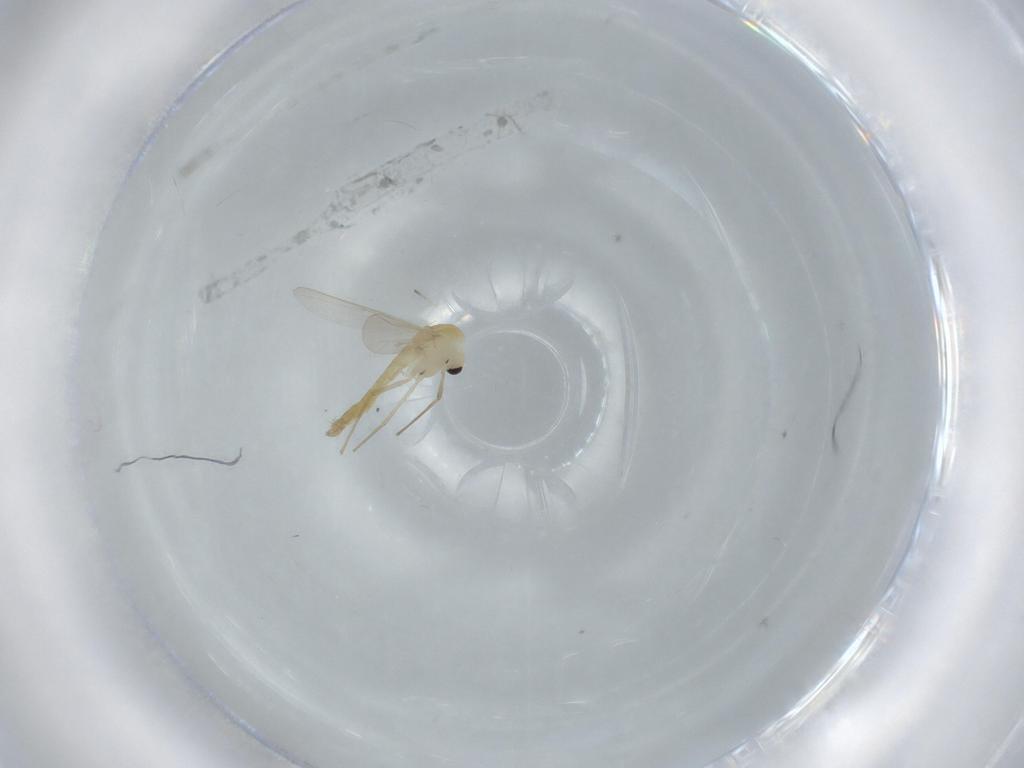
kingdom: Animalia
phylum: Arthropoda
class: Insecta
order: Diptera
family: Chironomidae
